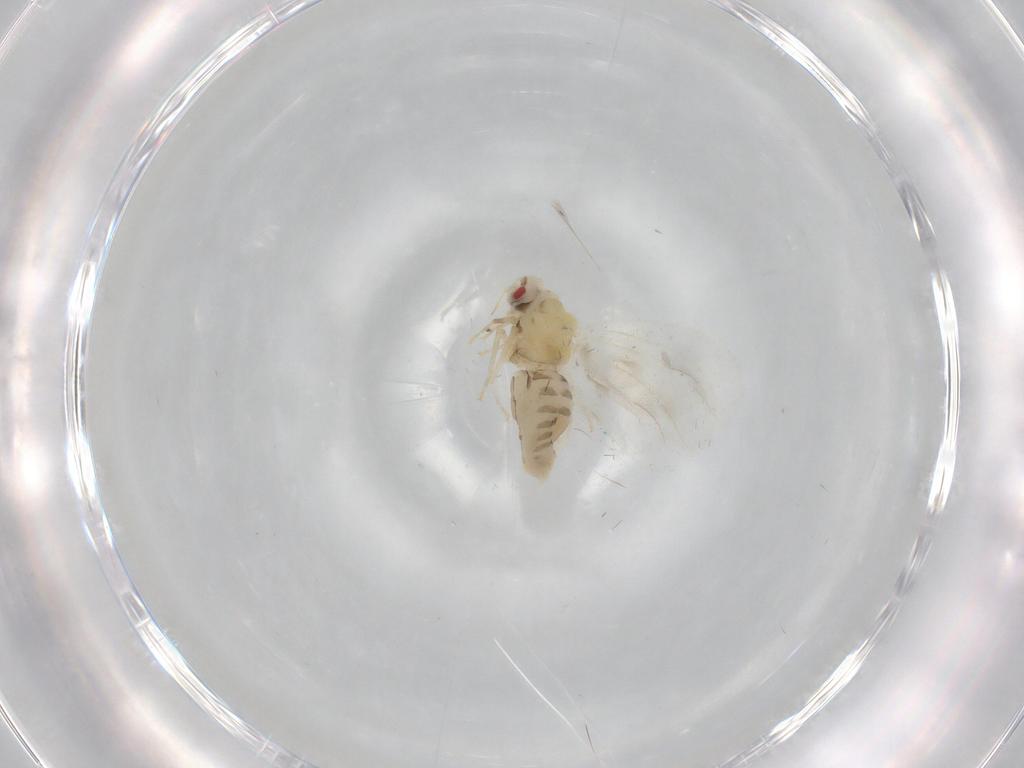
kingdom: Animalia
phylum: Arthropoda
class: Insecta
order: Hemiptera
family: Aleyrodidae
